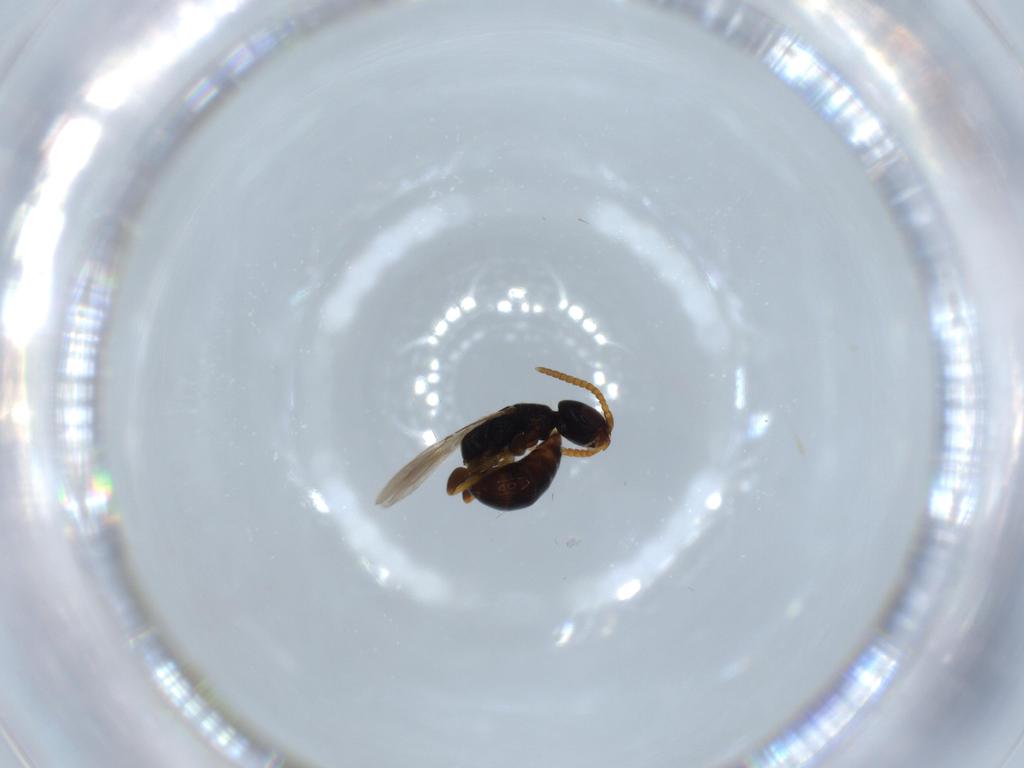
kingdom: Animalia
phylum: Arthropoda
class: Insecta
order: Hymenoptera
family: Bethylidae
